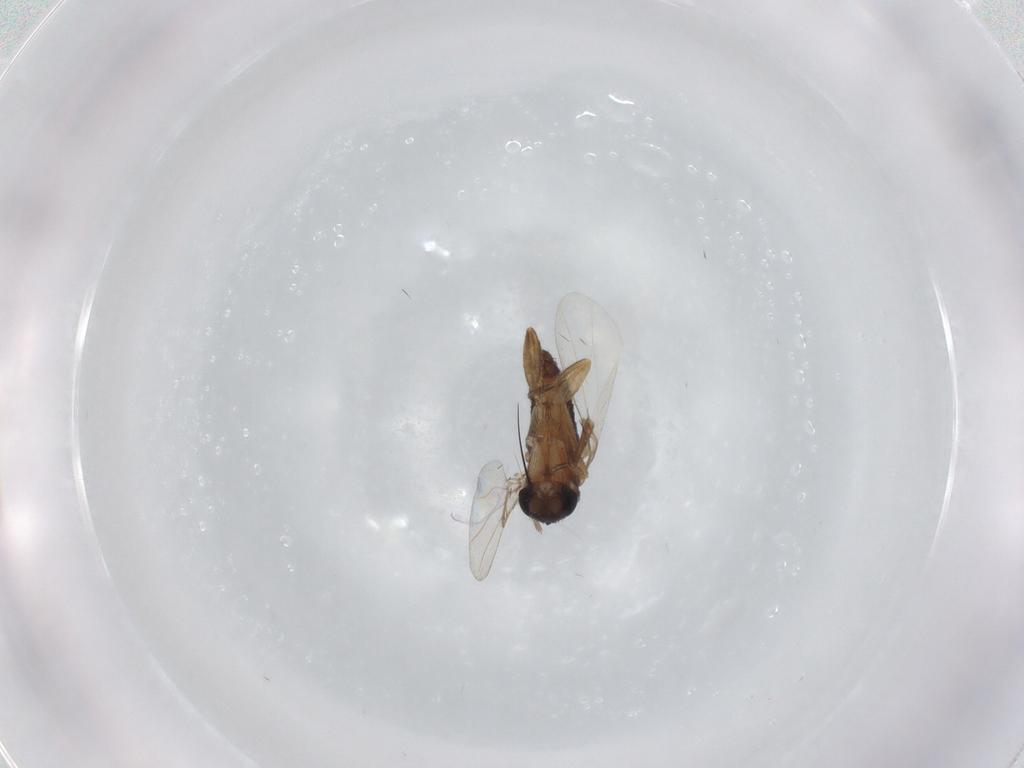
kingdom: Animalia
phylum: Arthropoda
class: Insecta
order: Diptera
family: Phoridae
